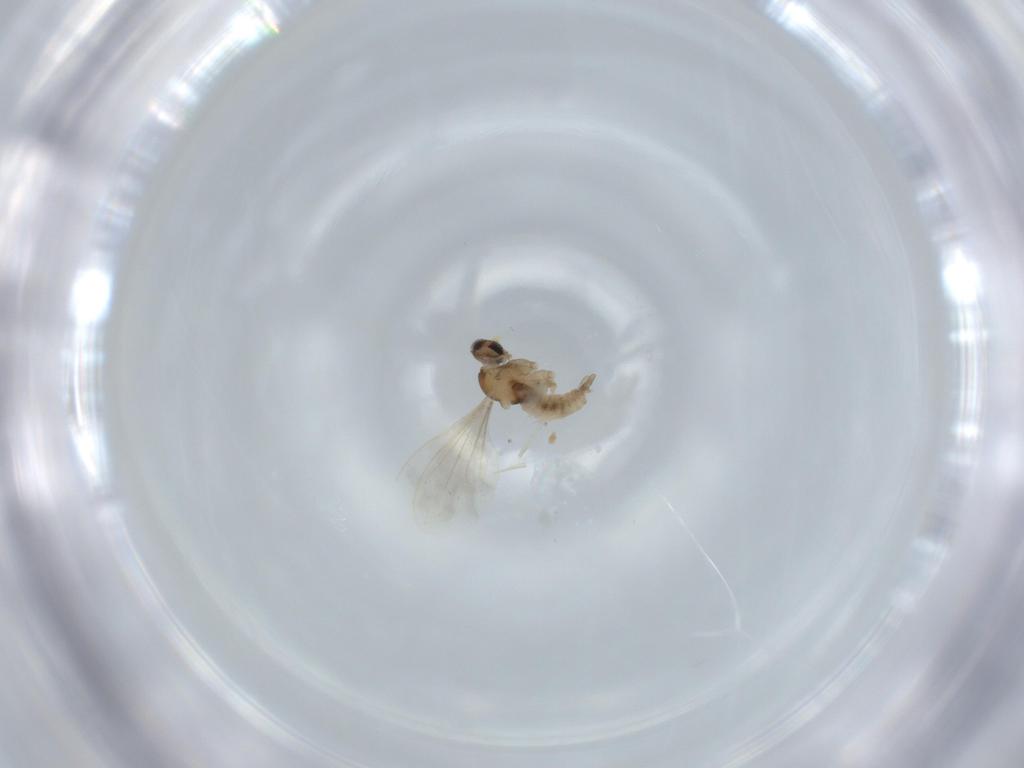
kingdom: Animalia
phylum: Arthropoda
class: Insecta
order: Diptera
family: Cecidomyiidae
